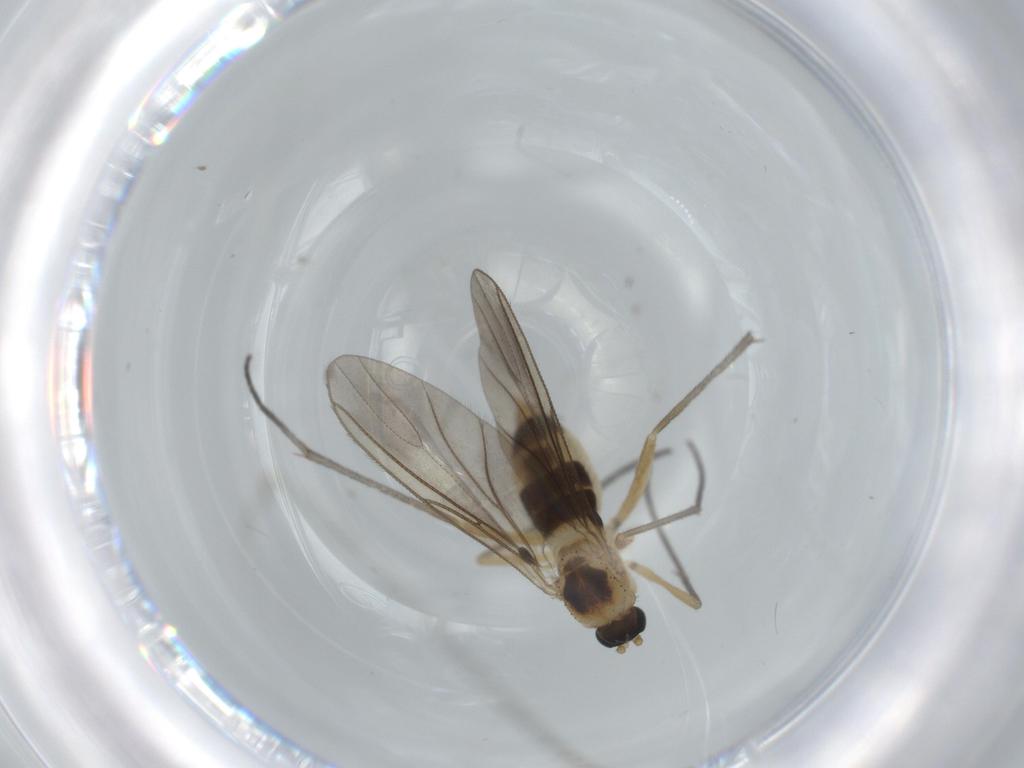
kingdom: Animalia
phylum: Arthropoda
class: Insecta
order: Diptera
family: Sciaridae
